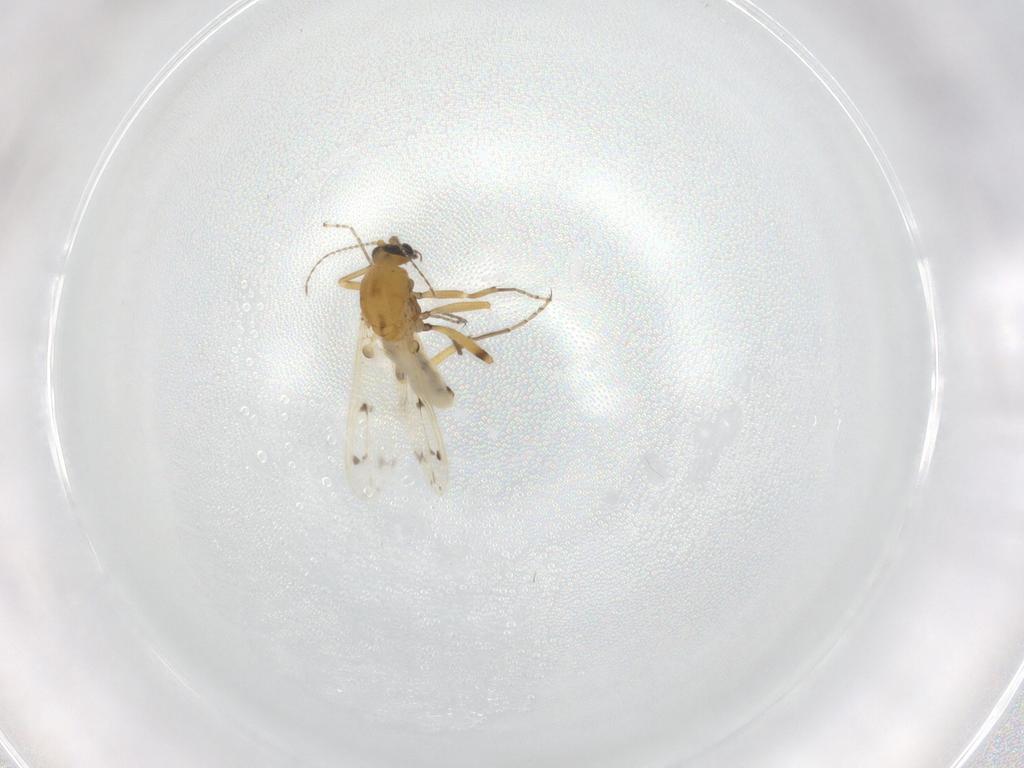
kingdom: Animalia
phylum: Arthropoda
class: Insecta
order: Diptera
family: Ceratopogonidae
